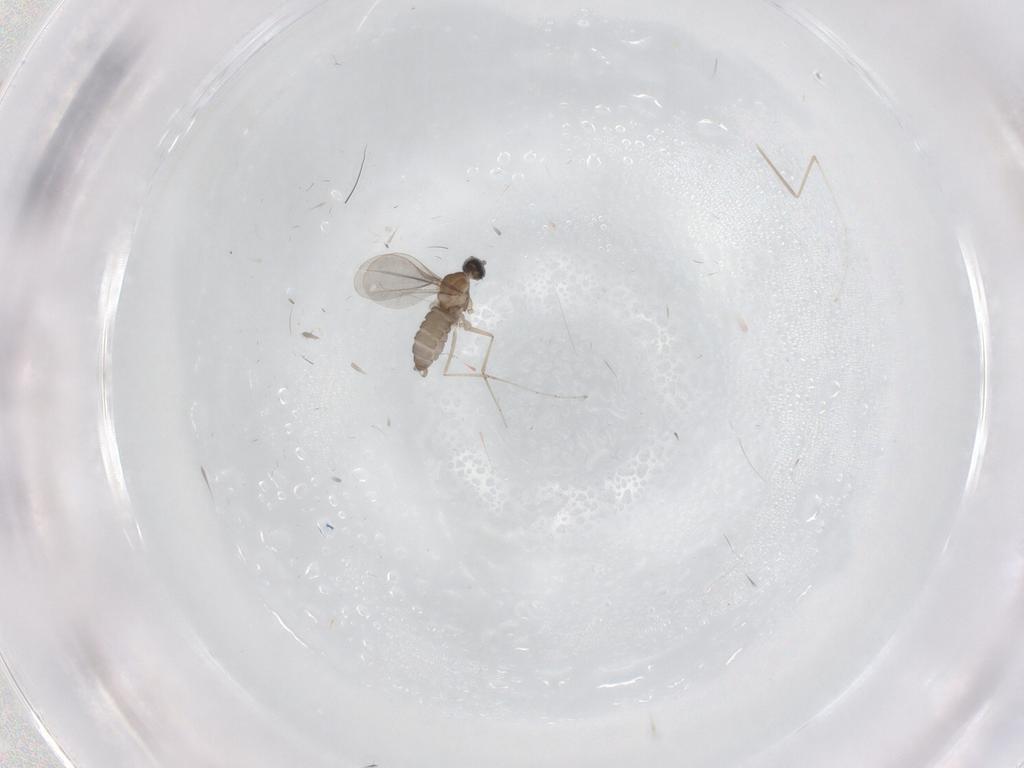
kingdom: Animalia
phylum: Arthropoda
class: Insecta
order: Diptera
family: Cecidomyiidae
